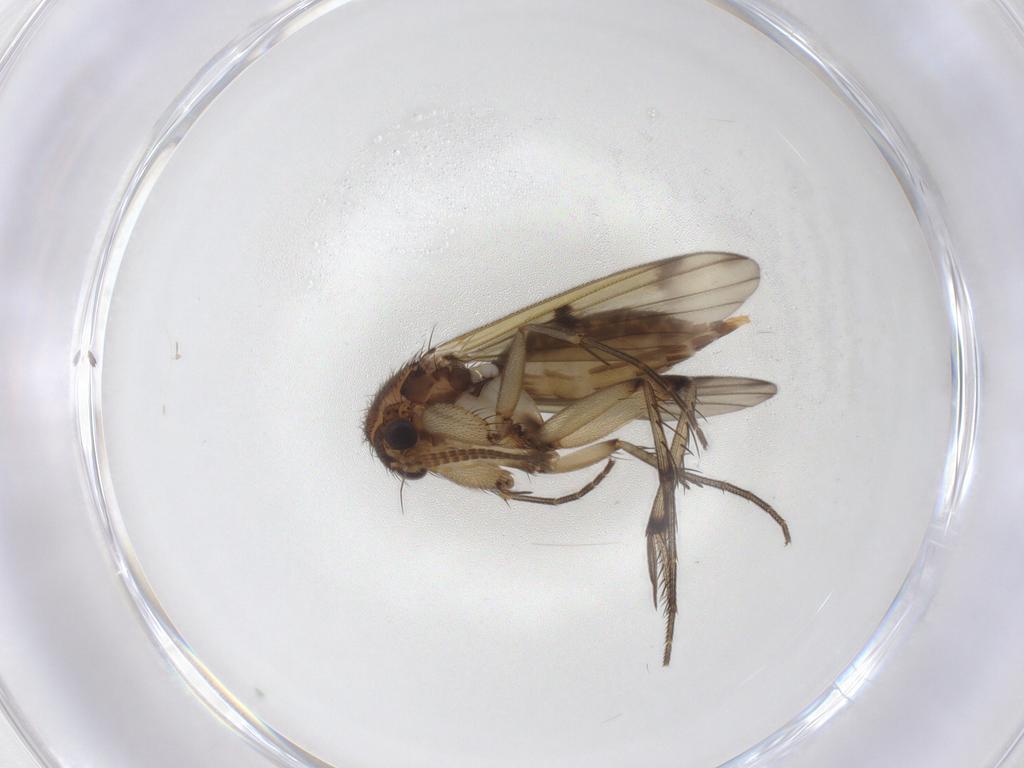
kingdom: Animalia
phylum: Arthropoda
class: Insecta
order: Diptera
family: Mycetophilidae
